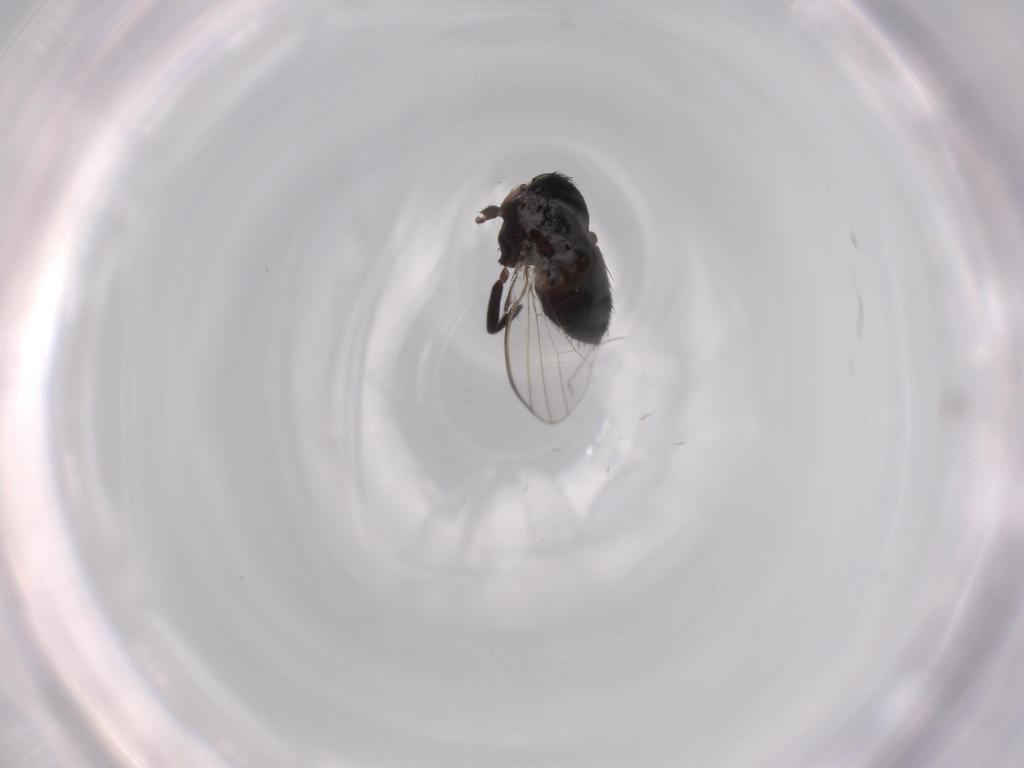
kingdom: Animalia
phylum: Arthropoda
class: Insecta
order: Diptera
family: Milichiidae
